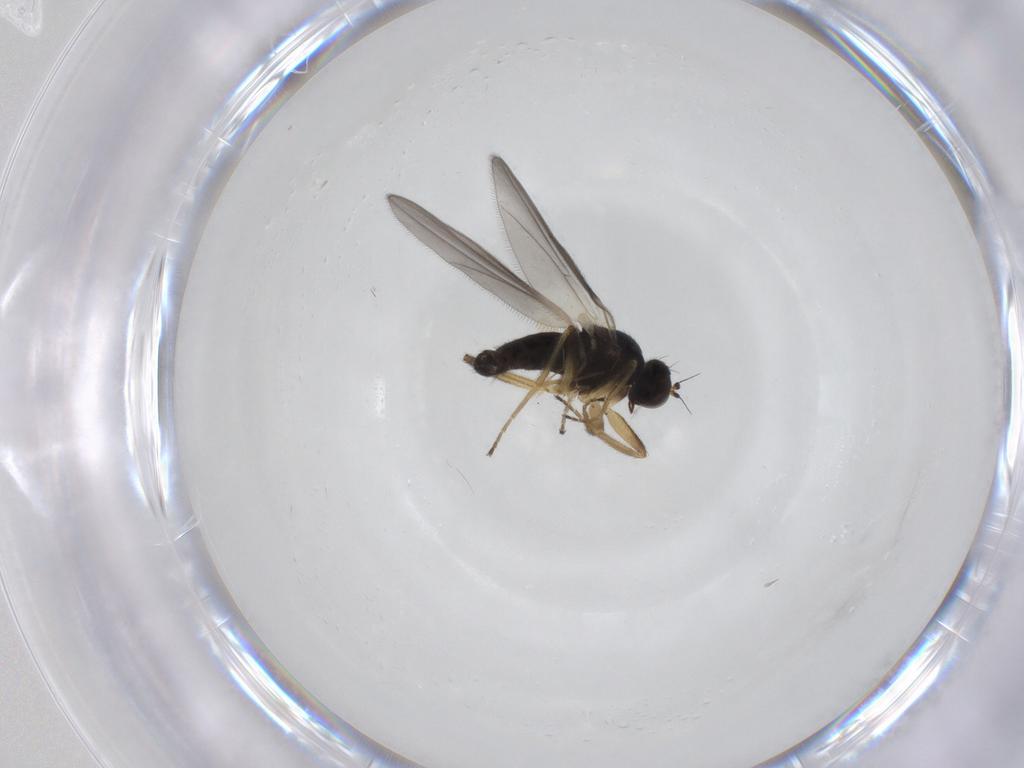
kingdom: Animalia
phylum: Arthropoda
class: Insecta
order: Diptera
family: Hybotidae
